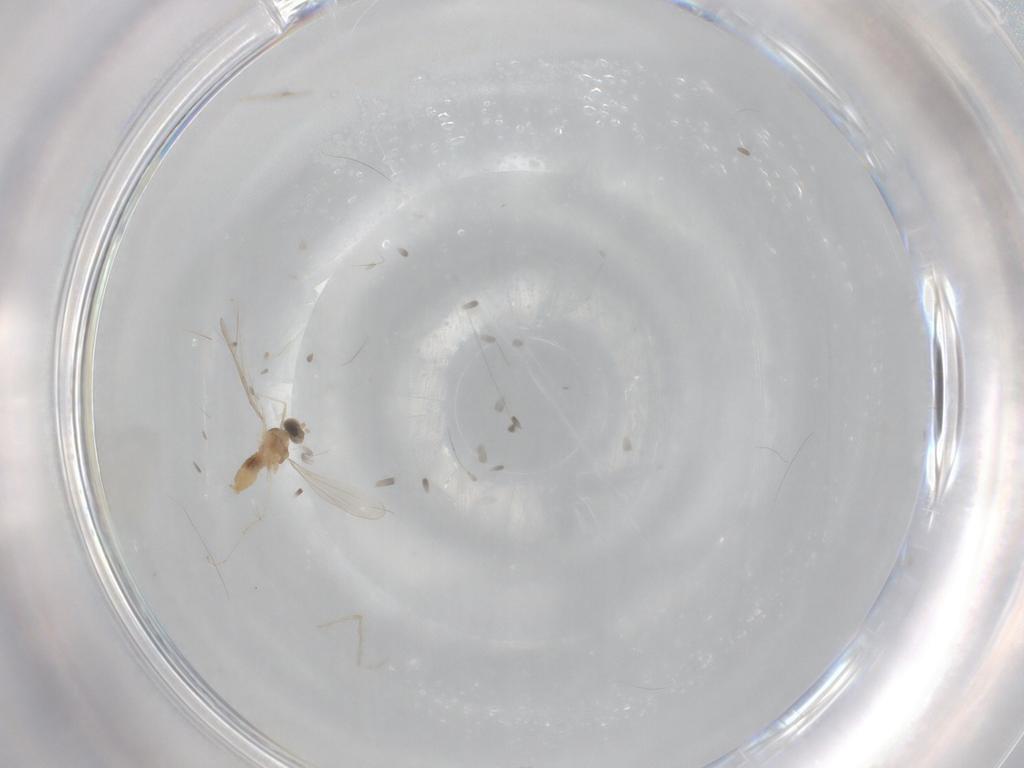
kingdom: Animalia
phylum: Arthropoda
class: Insecta
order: Diptera
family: Cecidomyiidae
